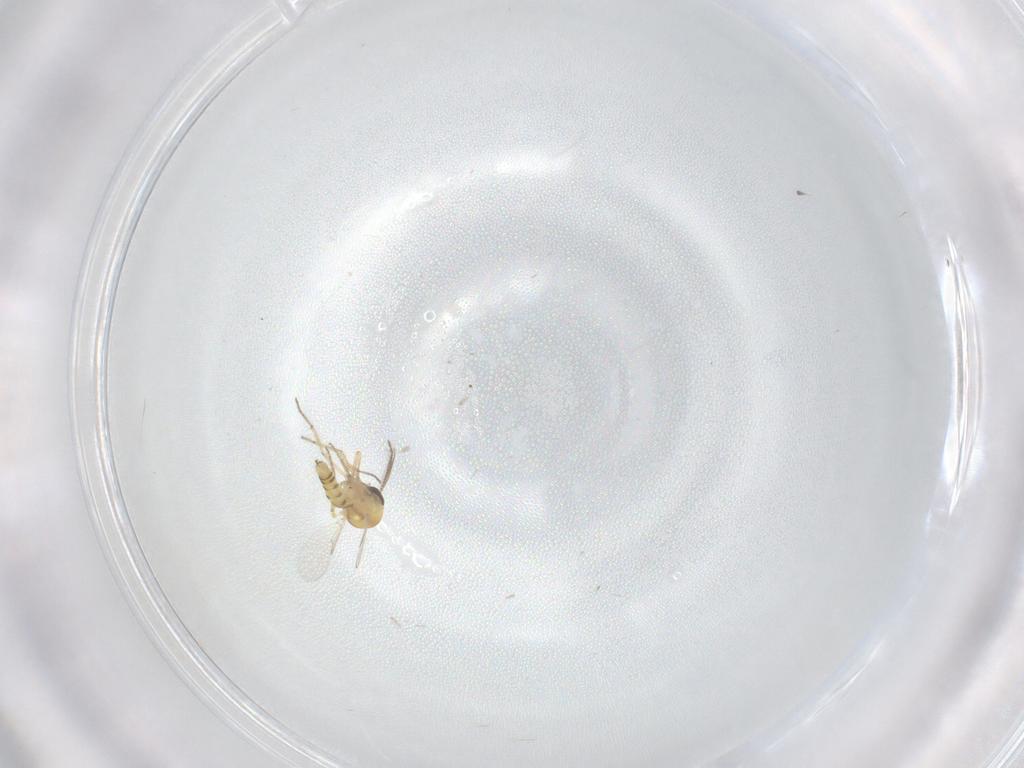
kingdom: Animalia
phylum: Arthropoda
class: Insecta
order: Diptera
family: Ceratopogonidae
